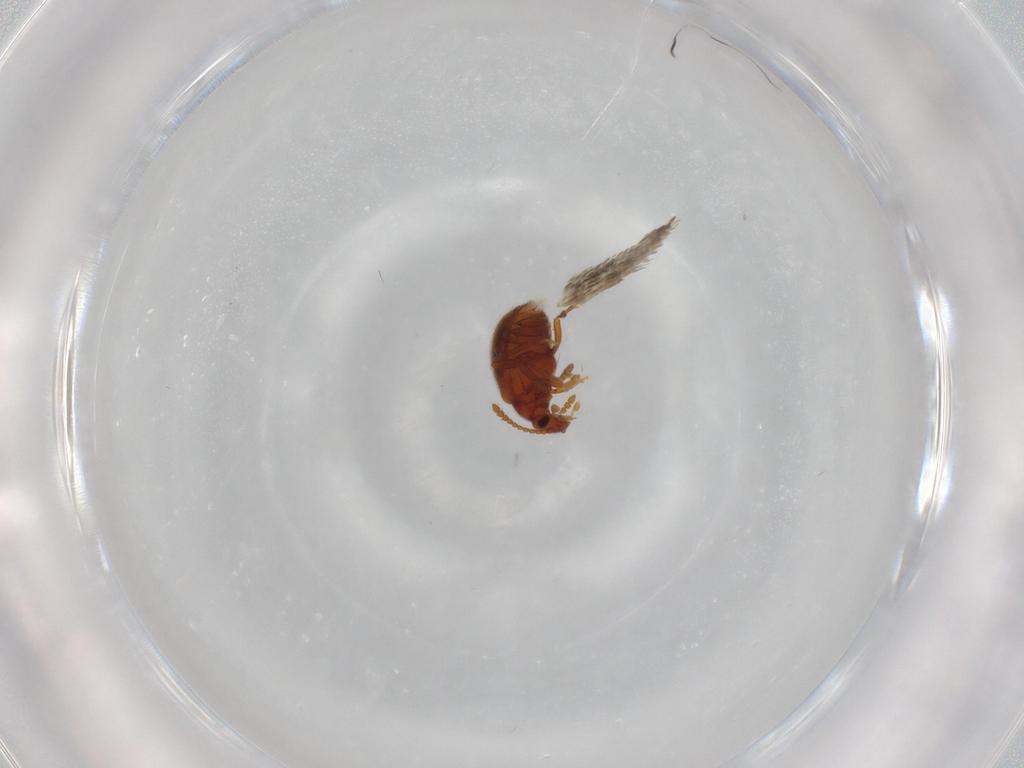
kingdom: Animalia
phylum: Arthropoda
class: Insecta
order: Coleoptera
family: Aderidae
